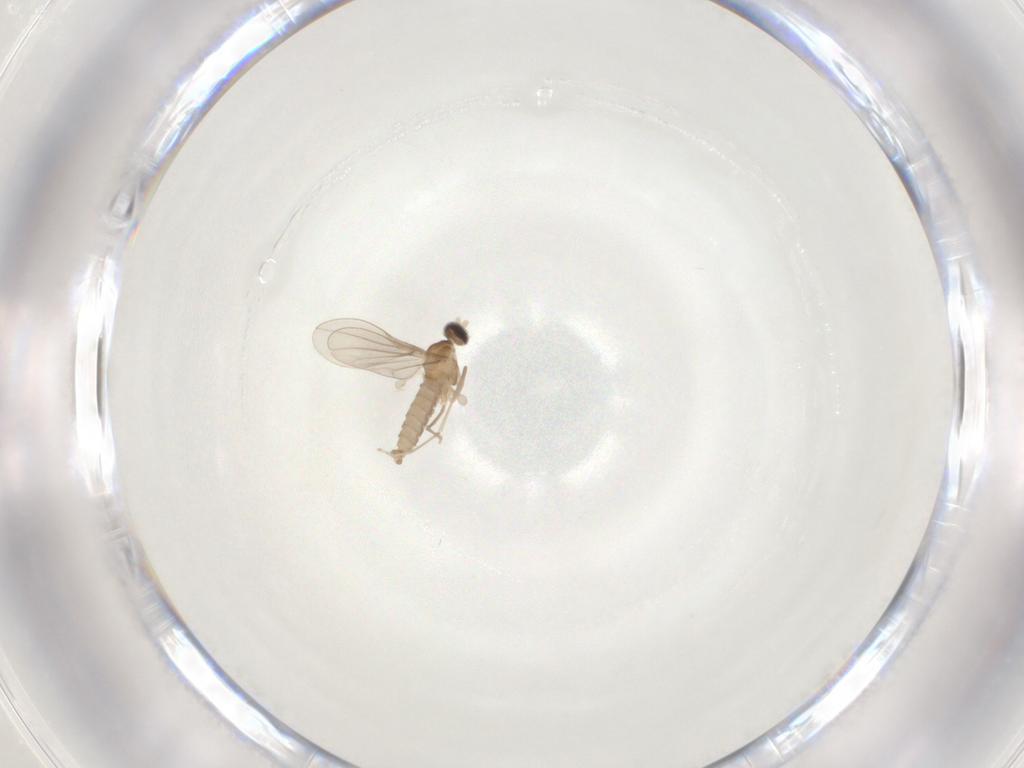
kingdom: Animalia
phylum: Arthropoda
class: Insecta
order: Diptera
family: Cecidomyiidae
